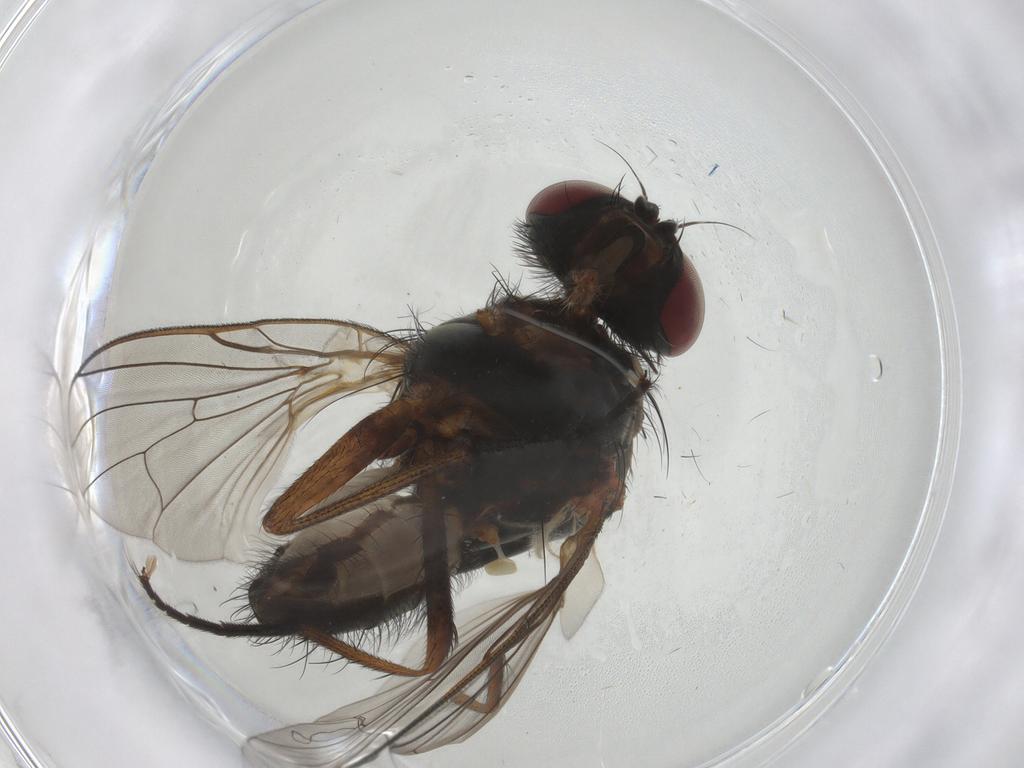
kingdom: Animalia
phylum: Arthropoda
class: Insecta
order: Diptera
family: Anthomyiidae
